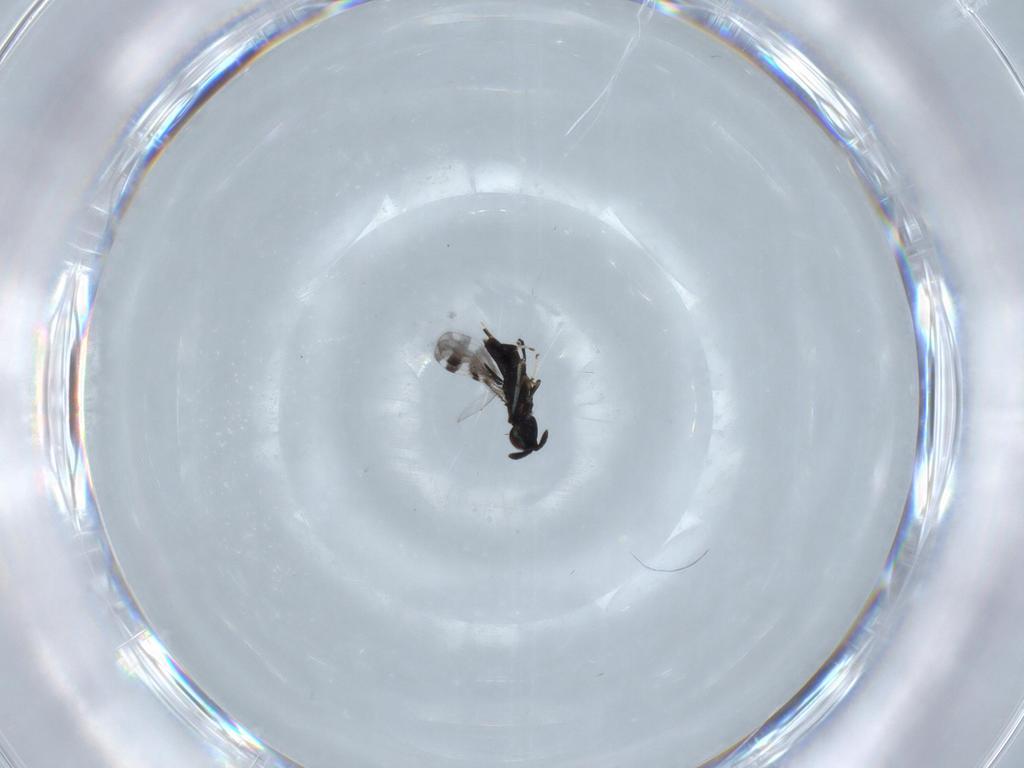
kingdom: Animalia
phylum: Arthropoda
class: Insecta
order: Hymenoptera
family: Encyrtidae
